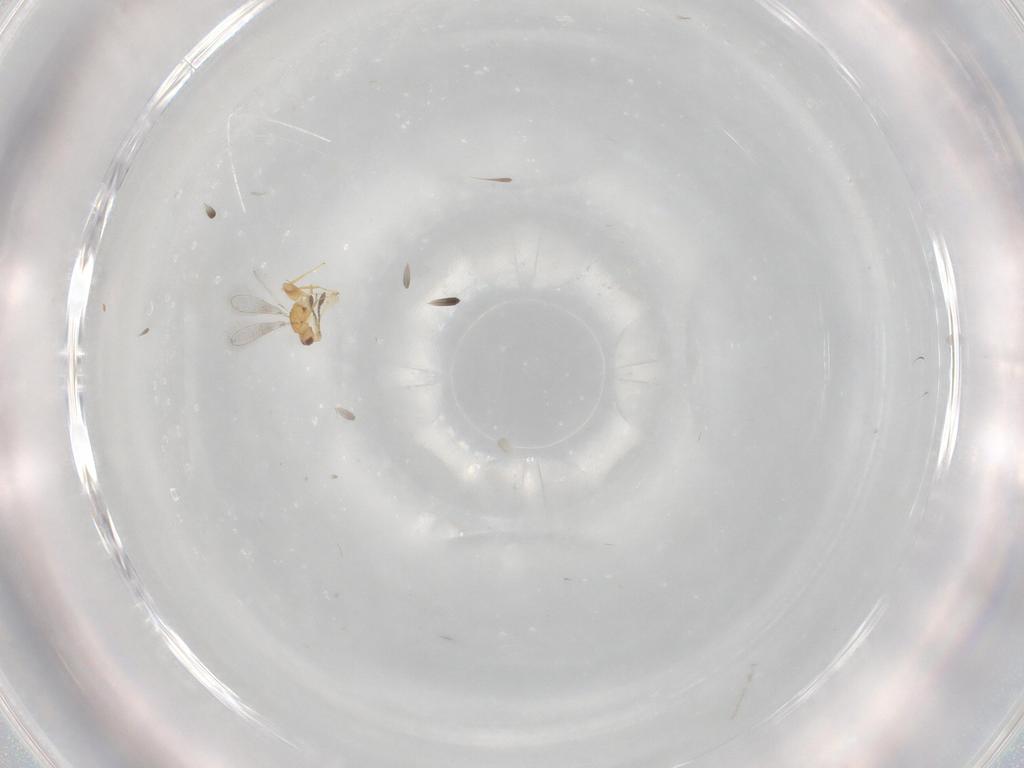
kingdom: Animalia
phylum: Arthropoda
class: Insecta
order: Hymenoptera
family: Mymaridae
